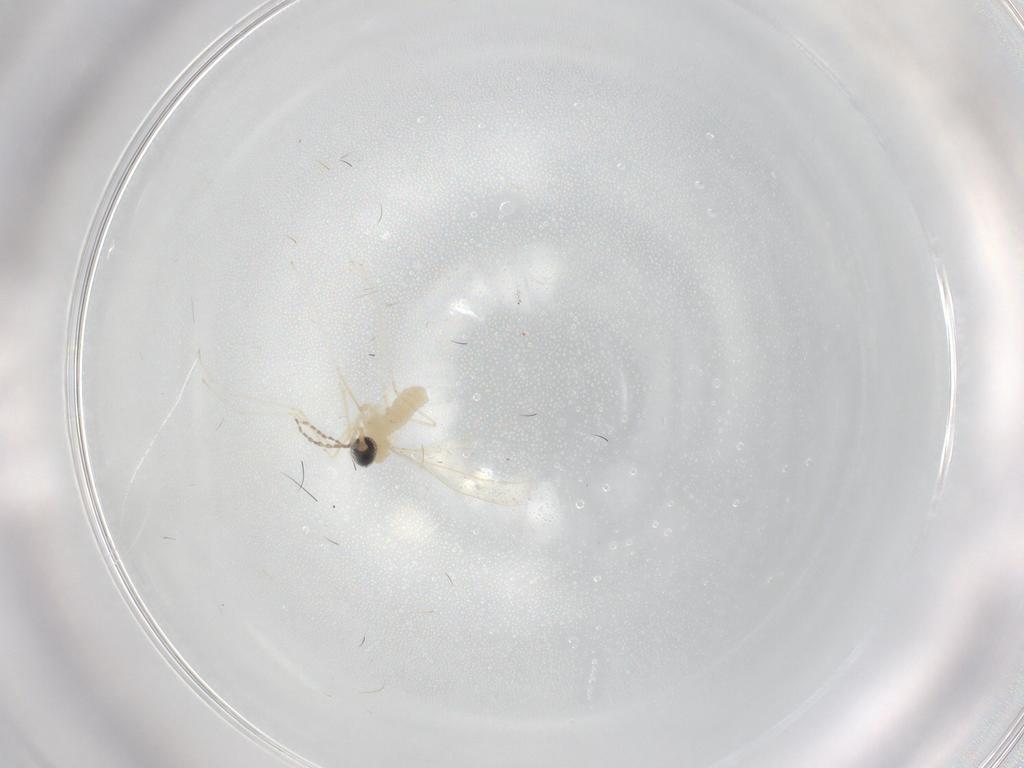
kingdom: Animalia
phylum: Arthropoda
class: Insecta
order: Diptera
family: Cecidomyiidae
